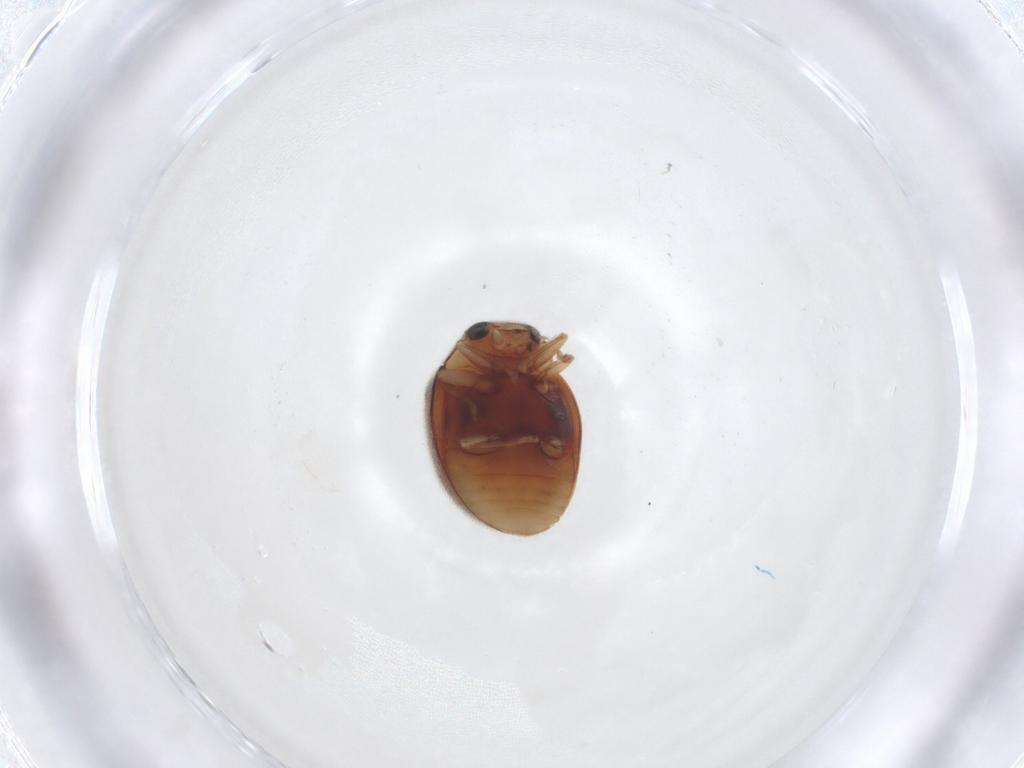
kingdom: Animalia
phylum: Arthropoda
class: Insecta
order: Coleoptera
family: Coccinellidae
